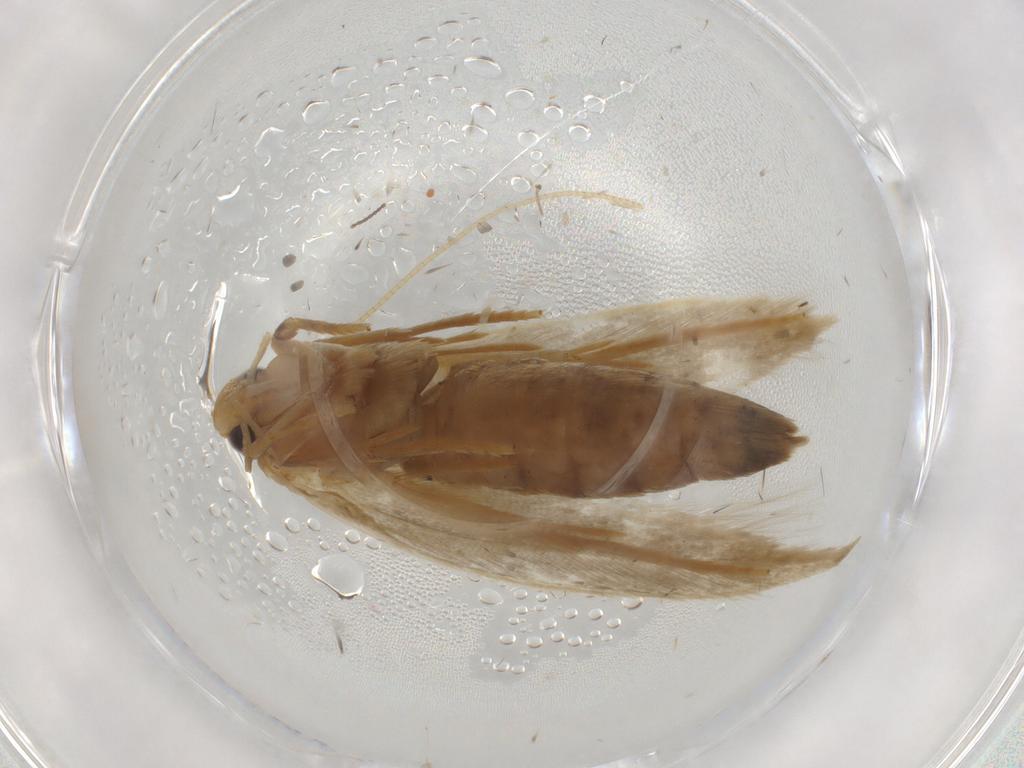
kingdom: Animalia
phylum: Arthropoda
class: Insecta
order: Lepidoptera
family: Tineidae
